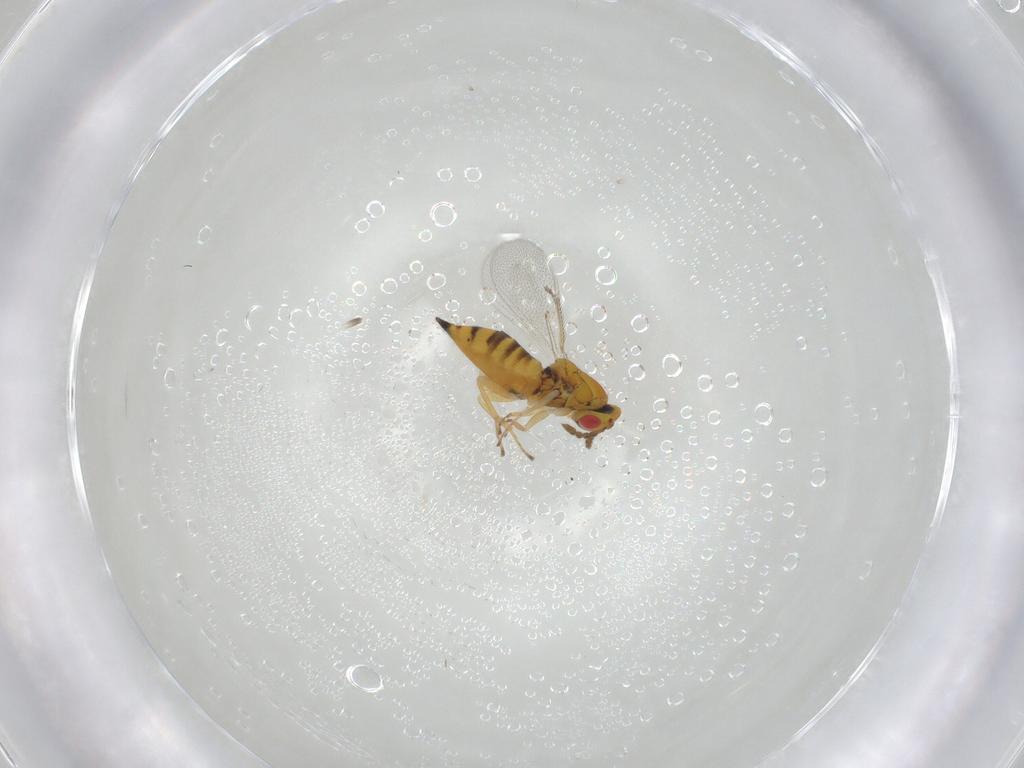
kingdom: Animalia
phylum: Arthropoda
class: Insecta
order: Hymenoptera
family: Eulophidae
